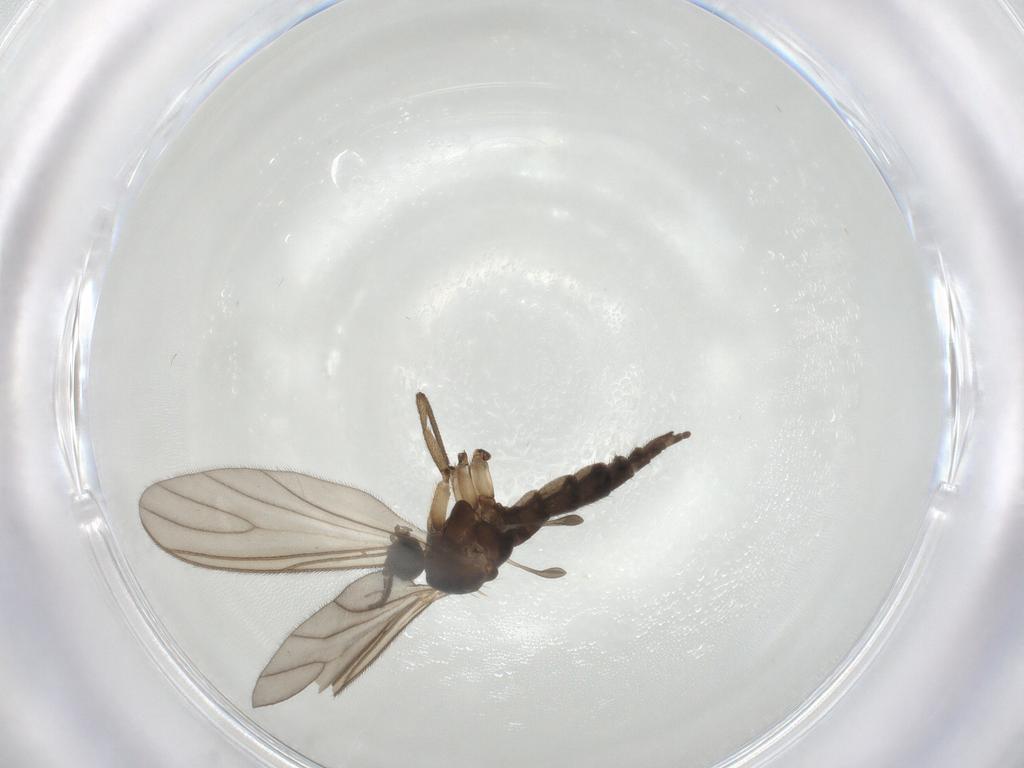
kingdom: Animalia
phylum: Arthropoda
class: Insecta
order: Diptera
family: Sciaridae
